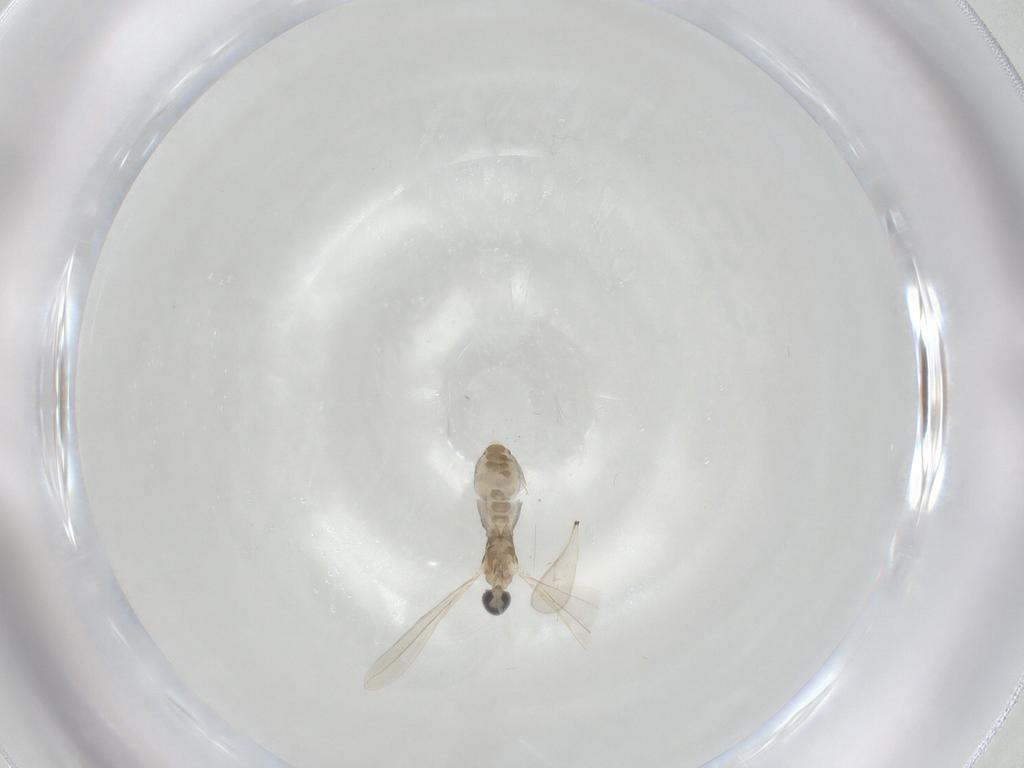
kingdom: Animalia
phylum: Arthropoda
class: Insecta
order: Diptera
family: Cecidomyiidae
